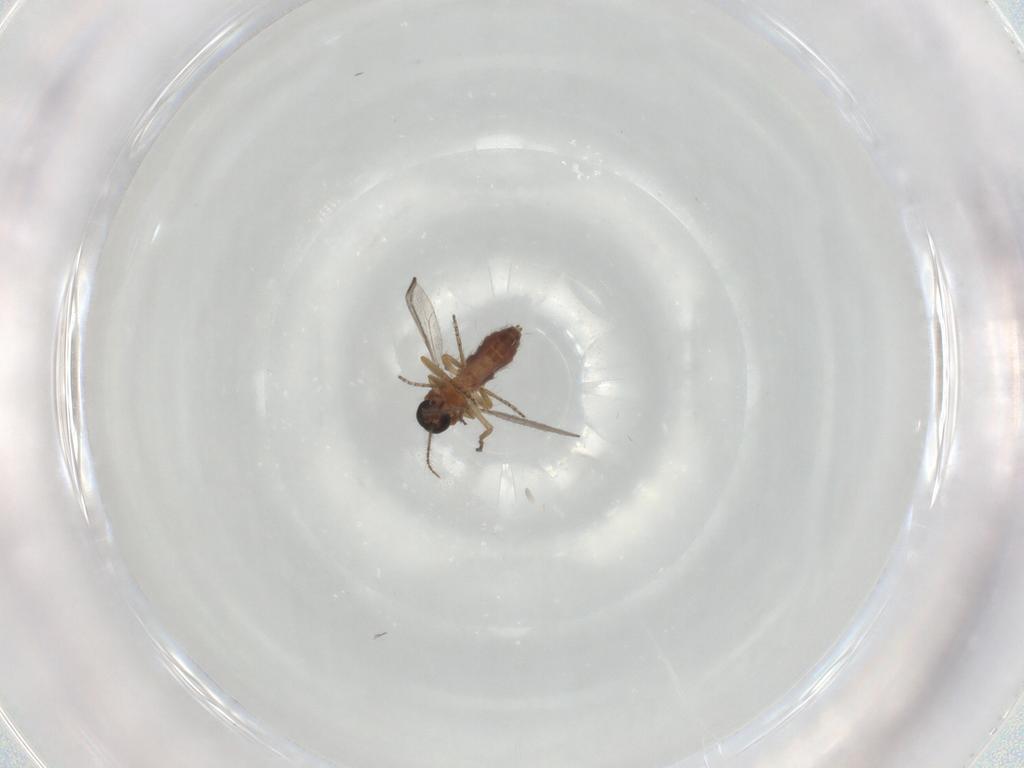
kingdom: Animalia
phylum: Arthropoda
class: Insecta
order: Diptera
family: Ceratopogonidae
